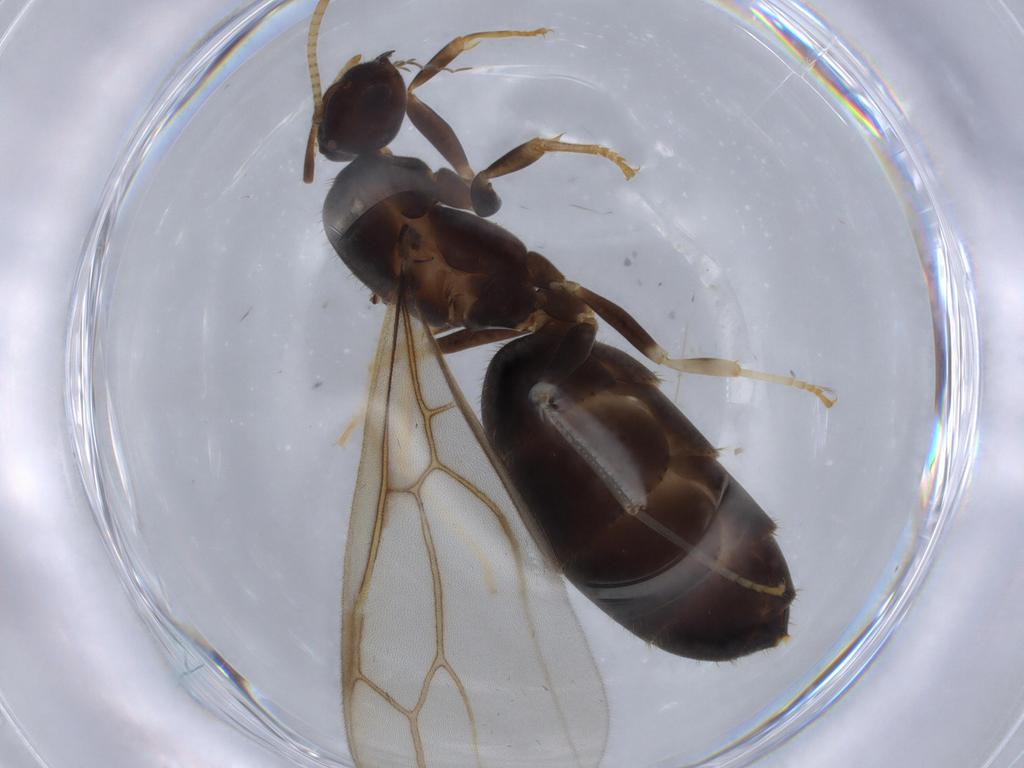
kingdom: Animalia
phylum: Arthropoda
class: Insecta
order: Hymenoptera
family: Formicidae
